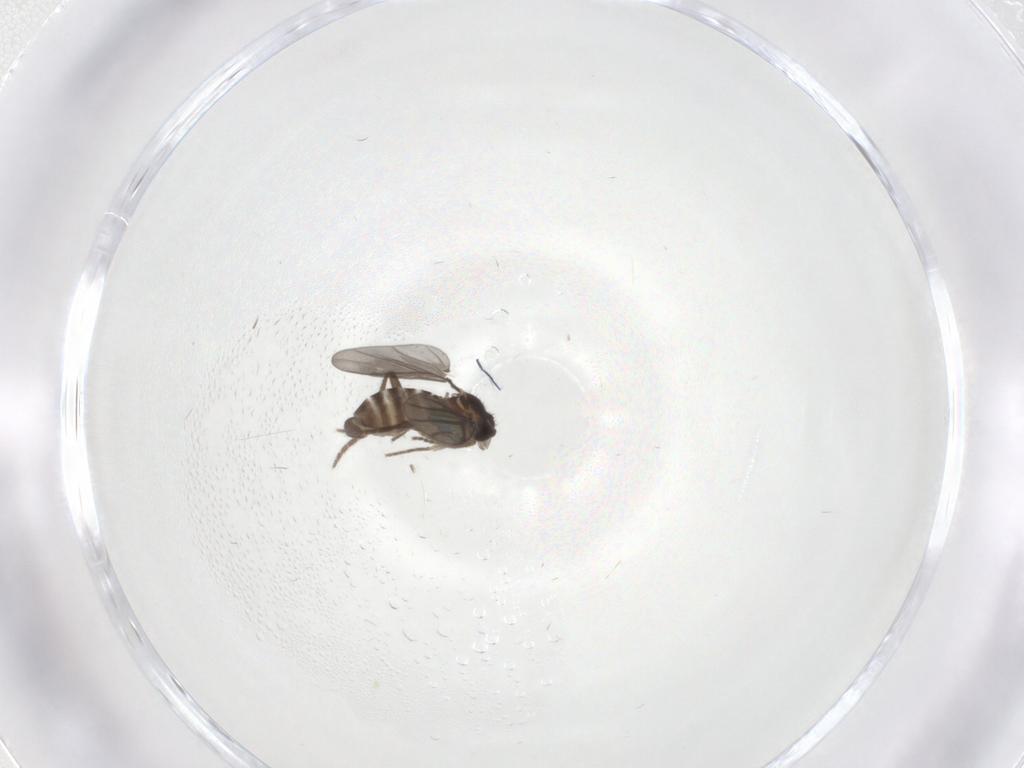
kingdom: Animalia
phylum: Arthropoda
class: Insecta
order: Diptera
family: Phoridae
